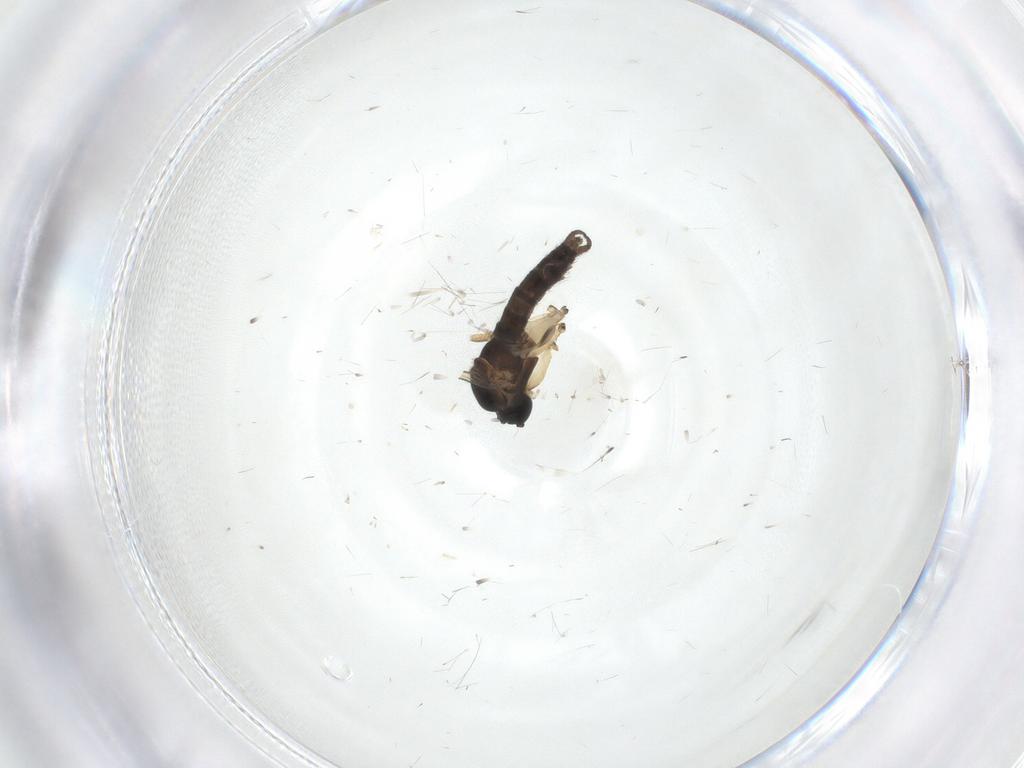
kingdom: Animalia
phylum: Arthropoda
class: Insecta
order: Diptera
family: Sciaridae
